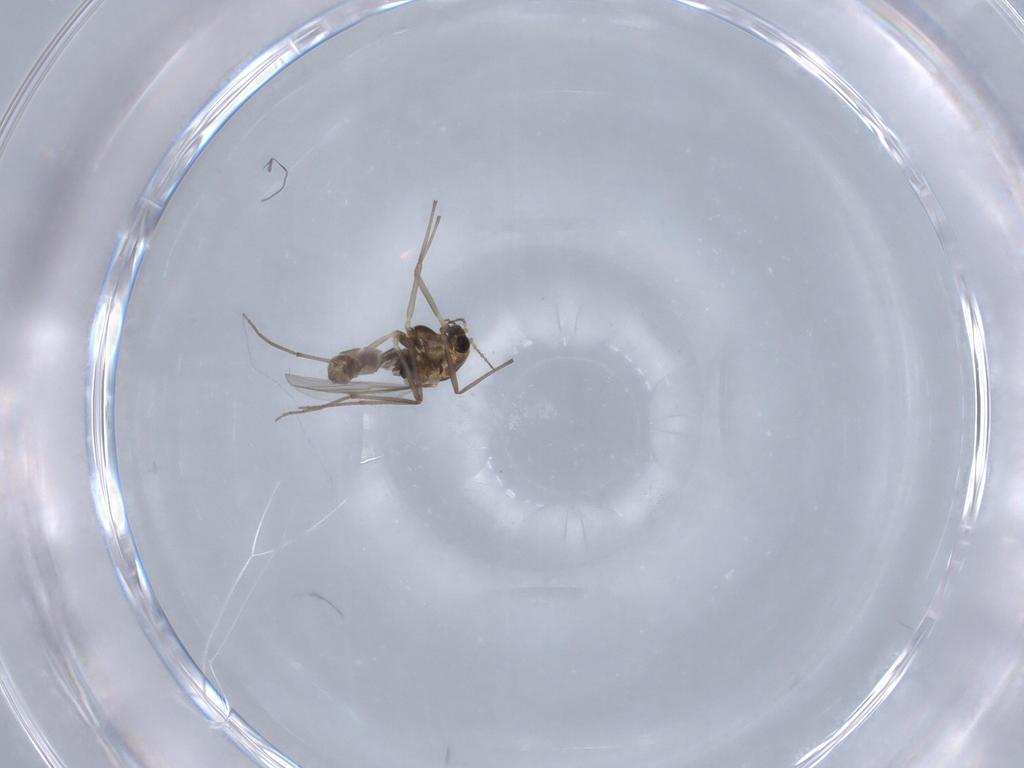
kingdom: Animalia
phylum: Arthropoda
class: Insecta
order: Diptera
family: Chironomidae
